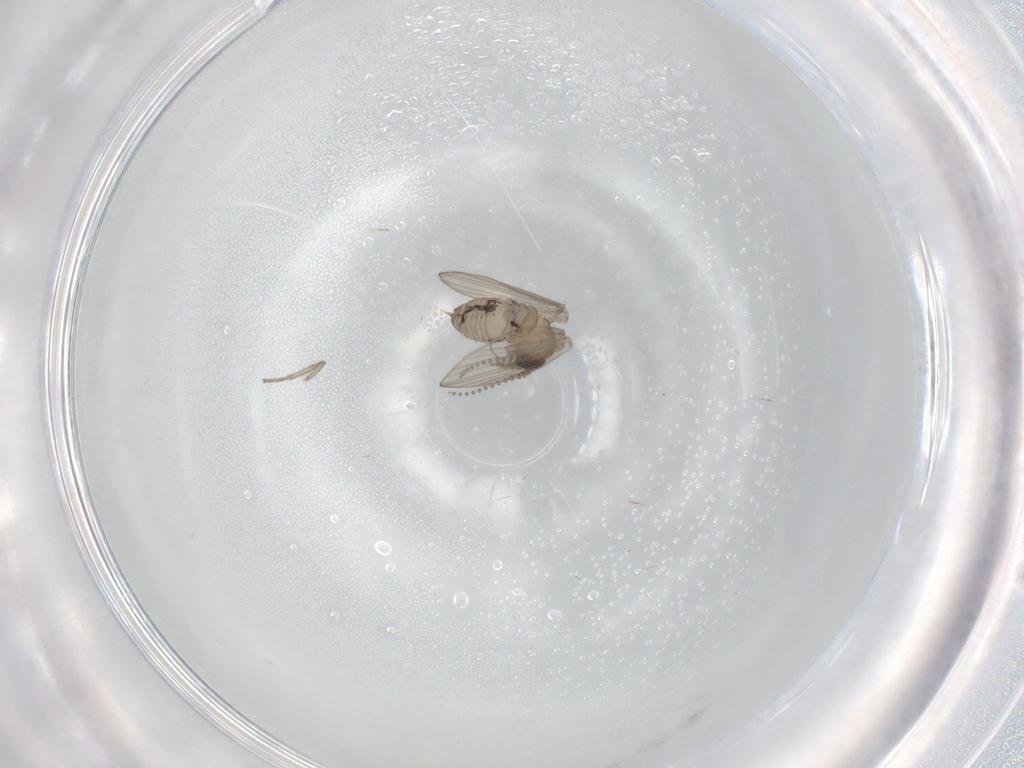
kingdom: Animalia
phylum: Arthropoda
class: Insecta
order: Diptera
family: Psychodidae
